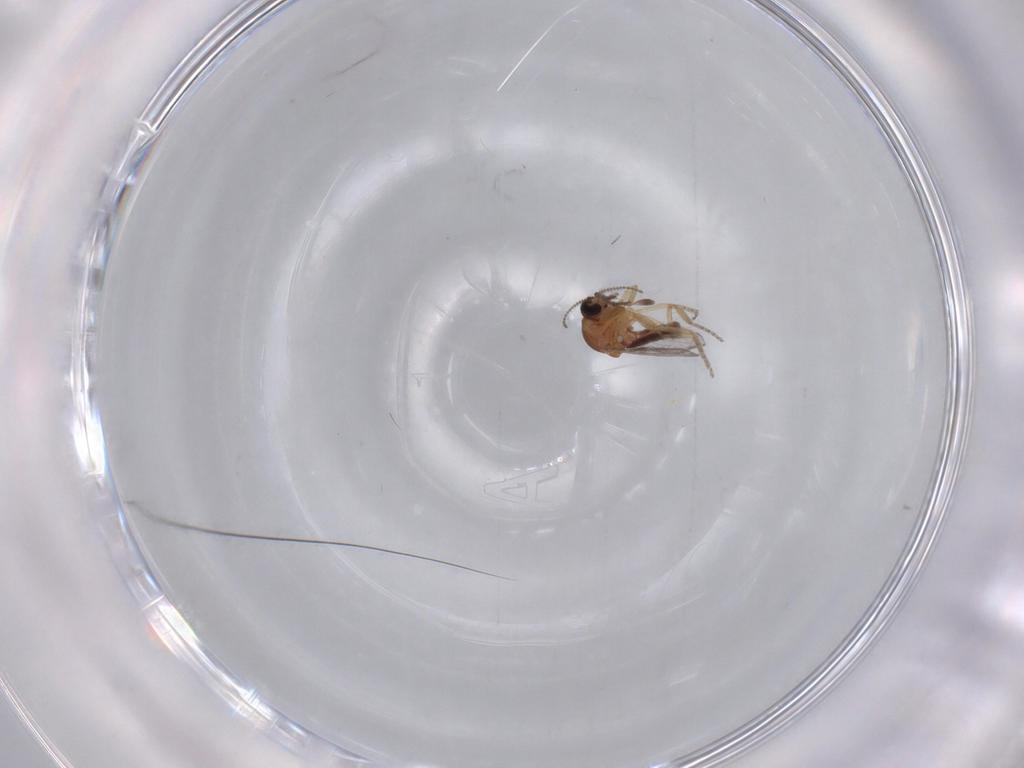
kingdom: Animalia
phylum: Arthropoda
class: Insecta
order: Diptera
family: Ceratopogonidae
